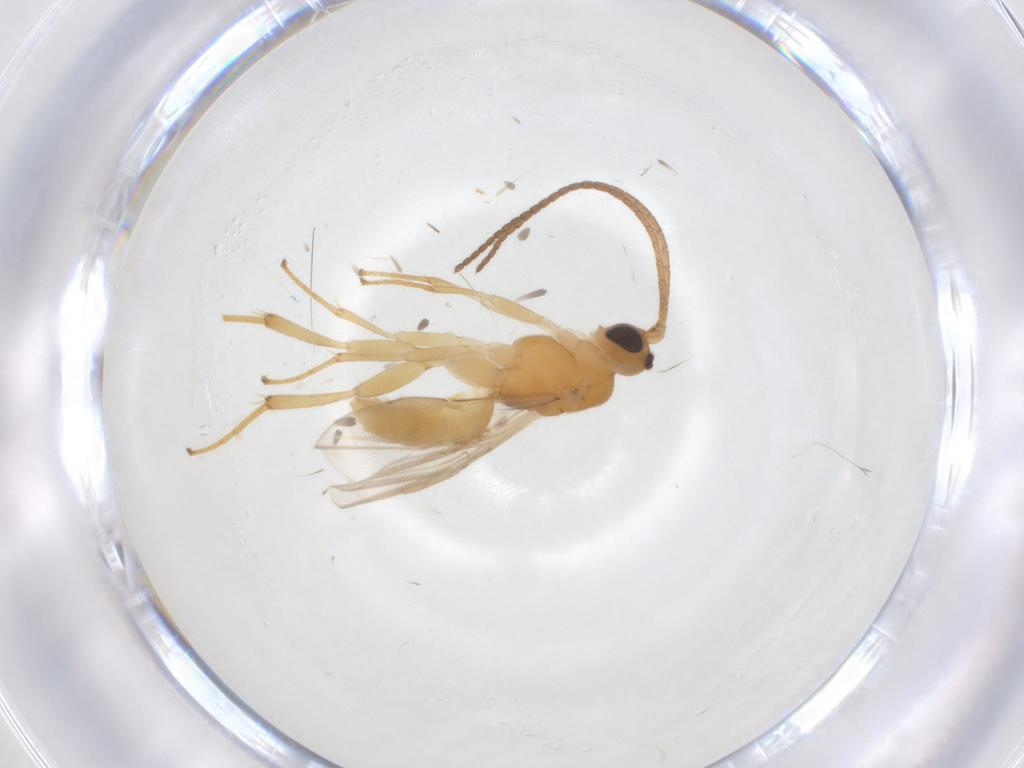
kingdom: Animalia
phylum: Arthropoda
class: Insecta
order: Hymenoptera
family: Braconidae
